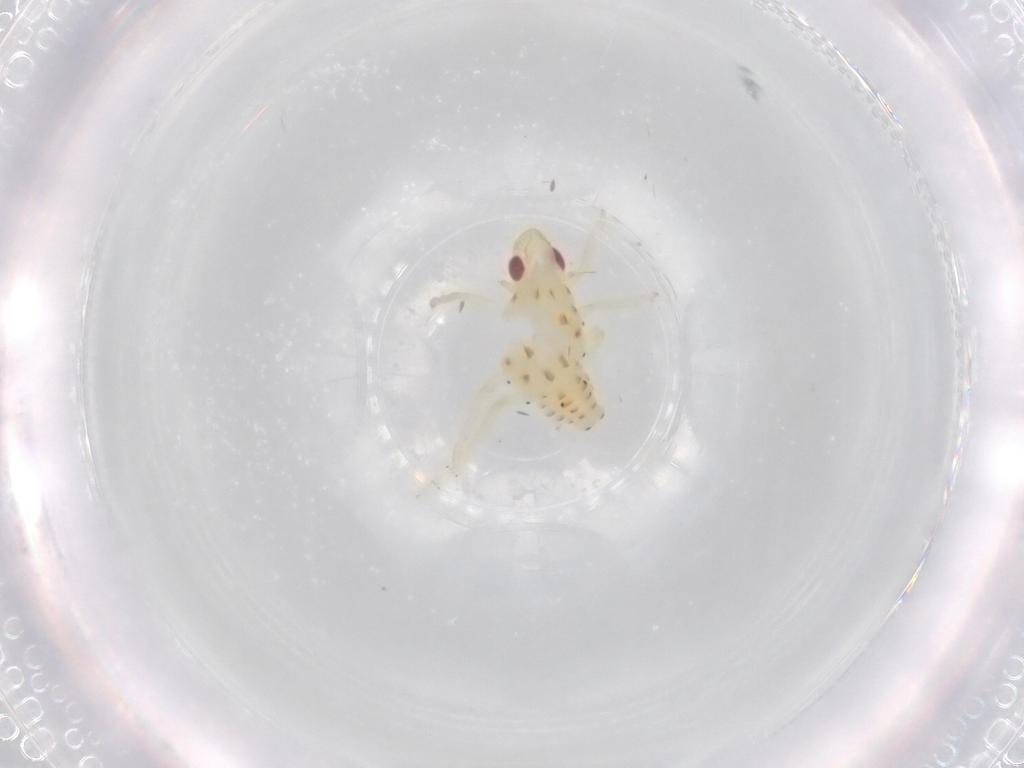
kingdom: Animalia
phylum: Arthropoda
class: Insecta
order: Hemiptera
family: Tropiduchidae
